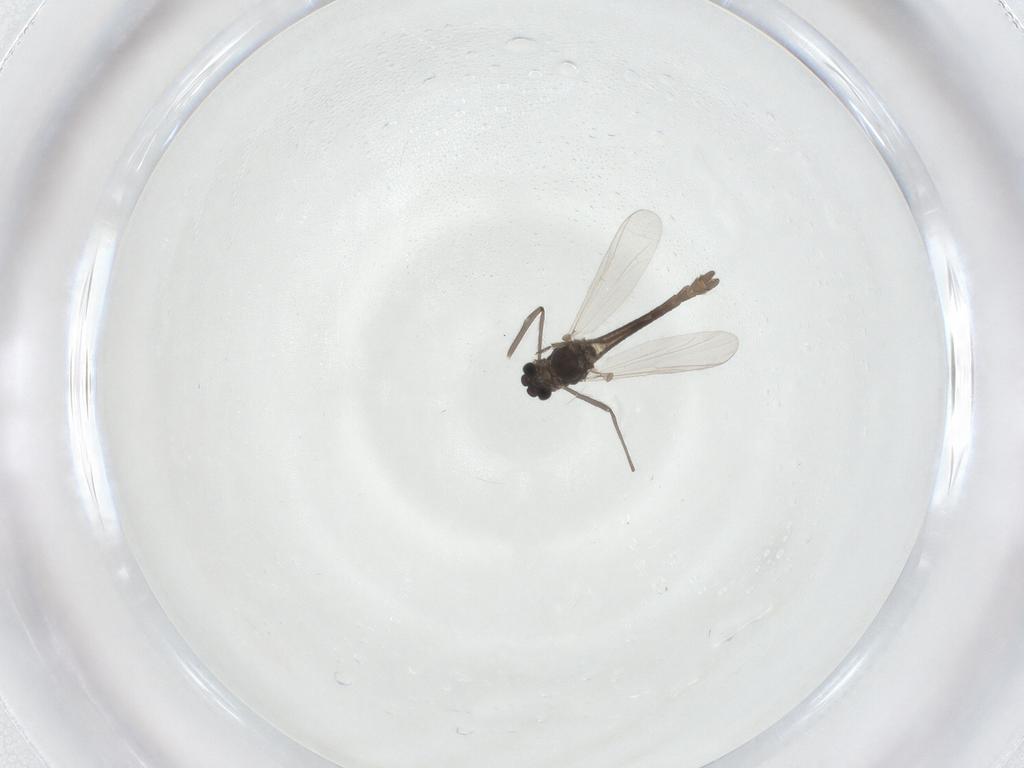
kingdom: Animalia
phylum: Arthropoda
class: Insecta
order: Diptera
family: Chironomidae
